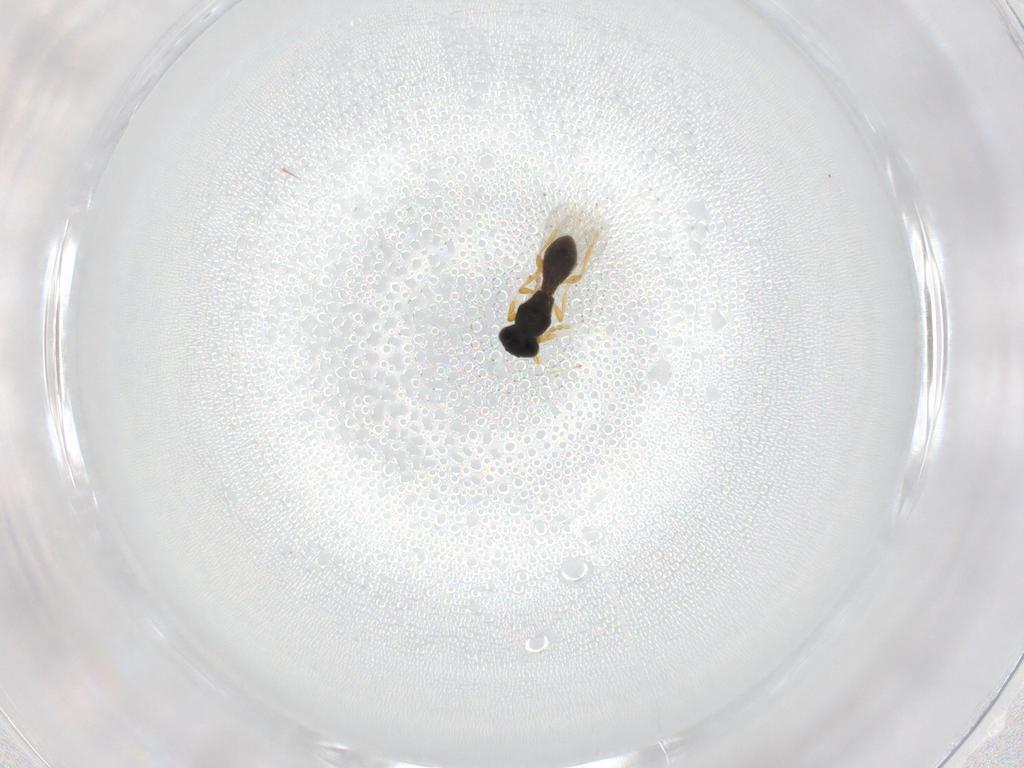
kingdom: Animalia
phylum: Arthropoda
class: Insecta
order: Hymenoptera
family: Platygastridae
